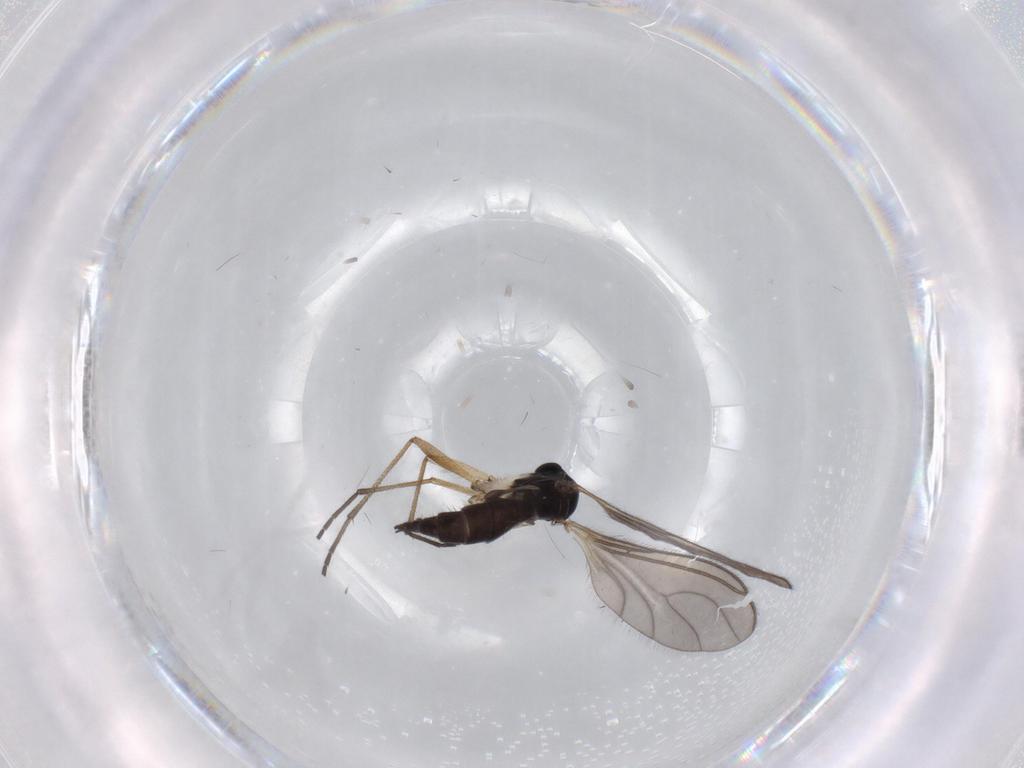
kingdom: Animalia
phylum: Arthropoda
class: Insecta
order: Diptera
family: Sciaridae
